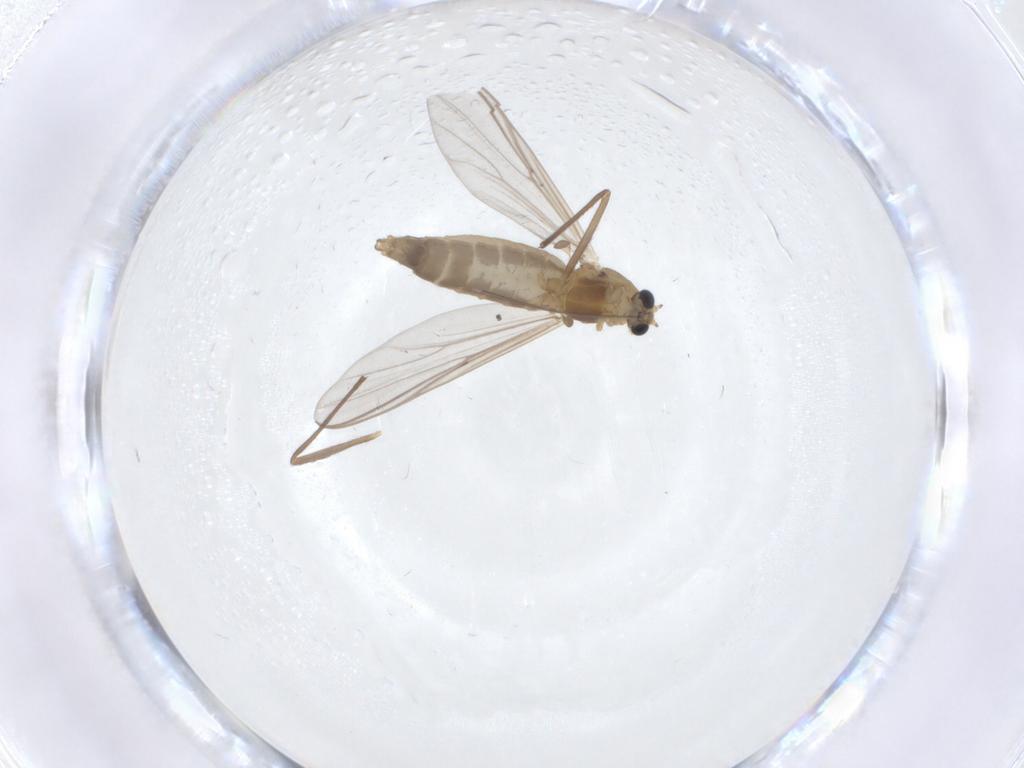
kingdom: Animalia
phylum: Arthropoda
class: Insecta
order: Diptera
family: Chironomidae
